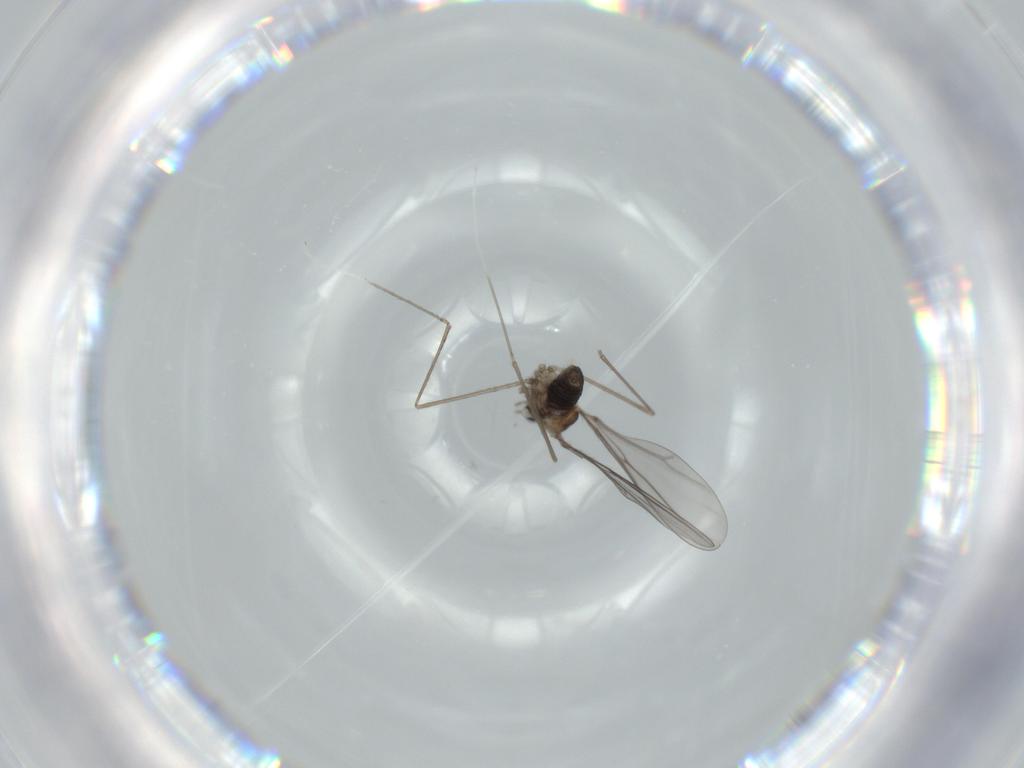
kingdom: Animalia
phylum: Arthropoda
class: Insecta
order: Diptera
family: Cecidomyiidae
